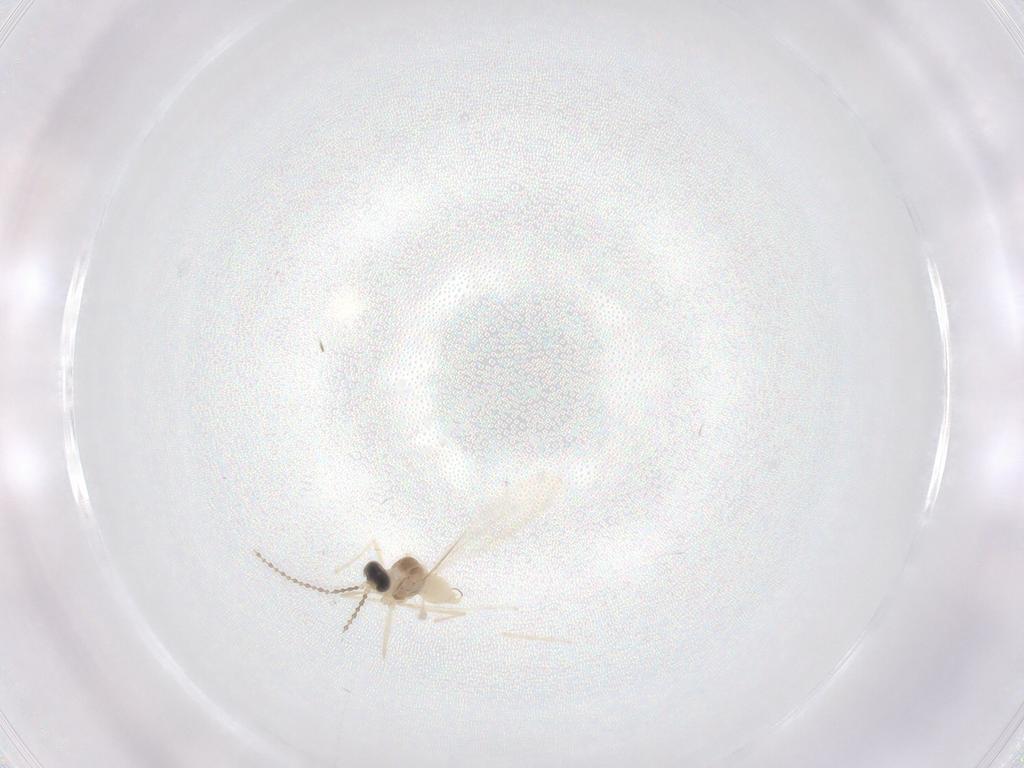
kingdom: Animalia
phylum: Arthropoda
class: Insecta
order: Diptera
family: Cecidomyiidae
